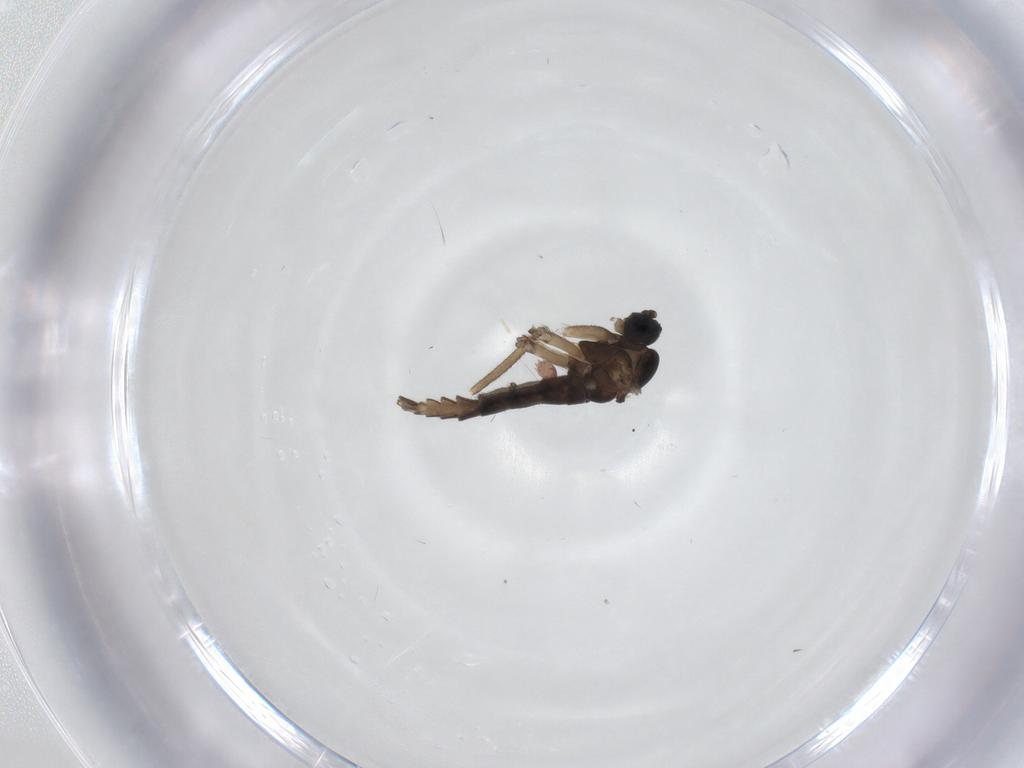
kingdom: Animalia
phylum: Arthropoda
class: Insecta
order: Diptera
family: Sciaridae
